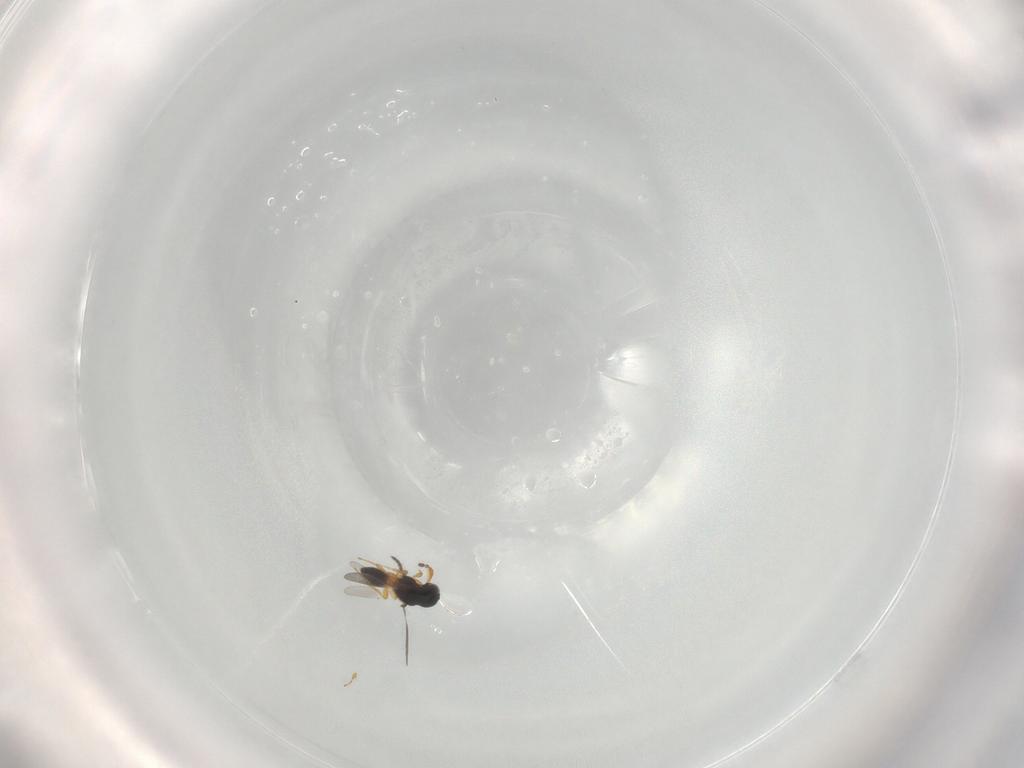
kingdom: Animalia
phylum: Arthropoda
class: Insecta
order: Hymenoptera
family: Platygastridae
